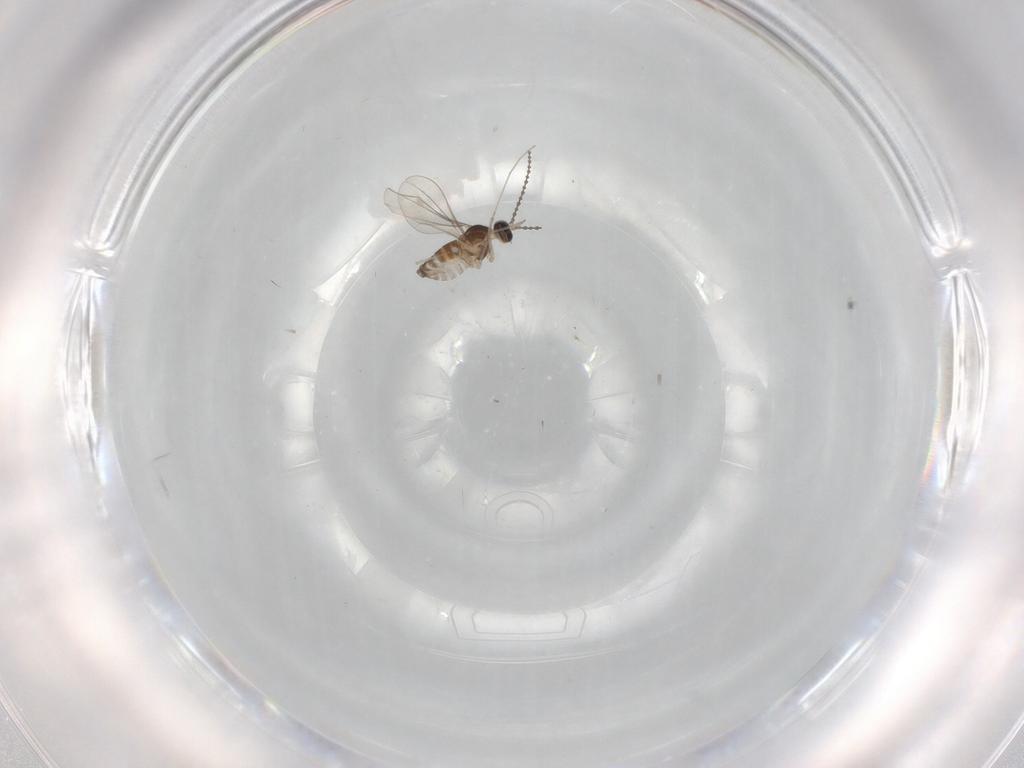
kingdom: Animalia
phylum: Arthropoda
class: Insecta
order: Diptera
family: Cecidomyiidae
